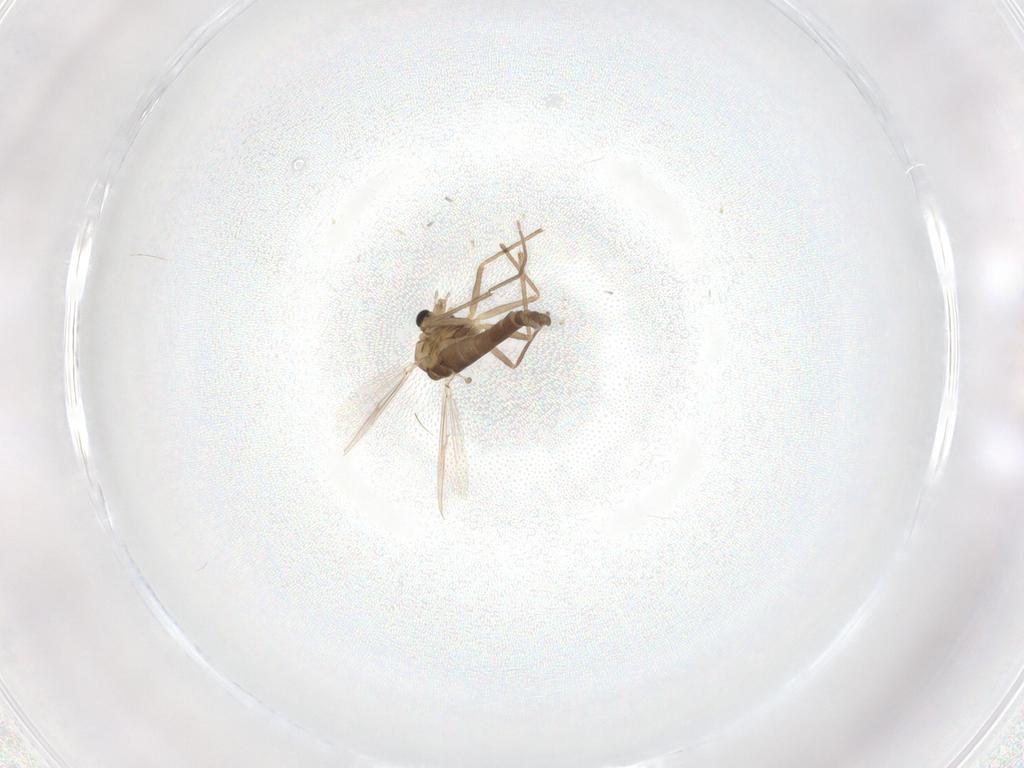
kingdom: Animalia
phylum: Arthropoda
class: Insecta
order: Diptera
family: Chironomidae
